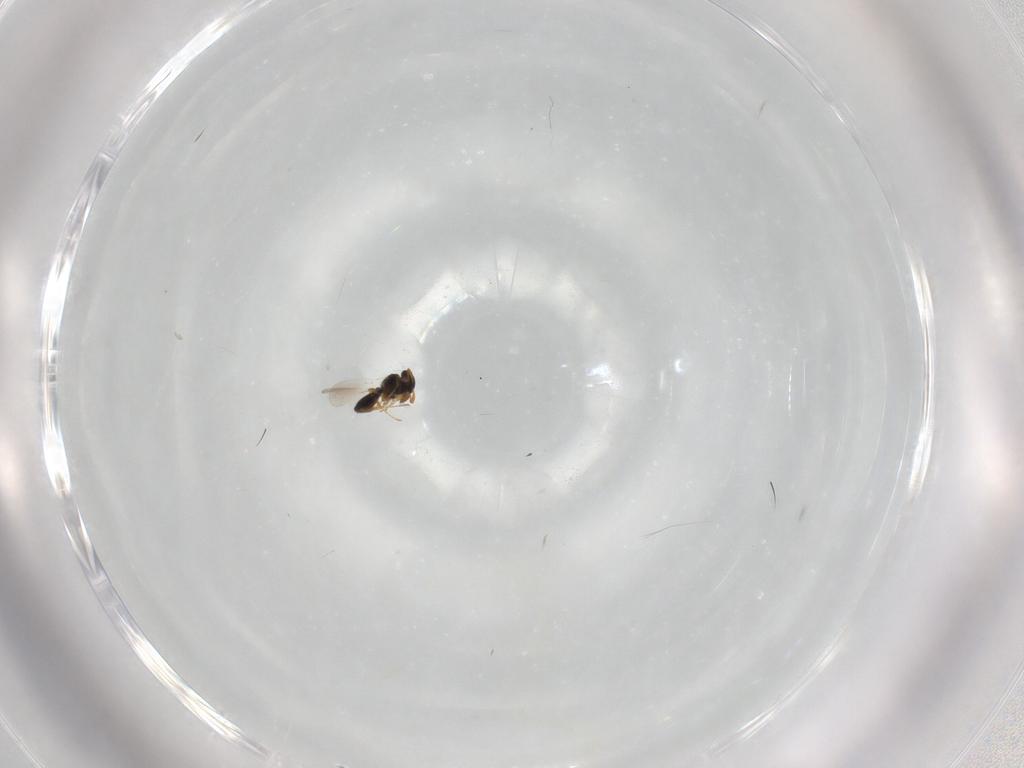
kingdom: Animalia
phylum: Arthropoda
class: Insecta
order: Hymenoptera
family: Platygastridae
